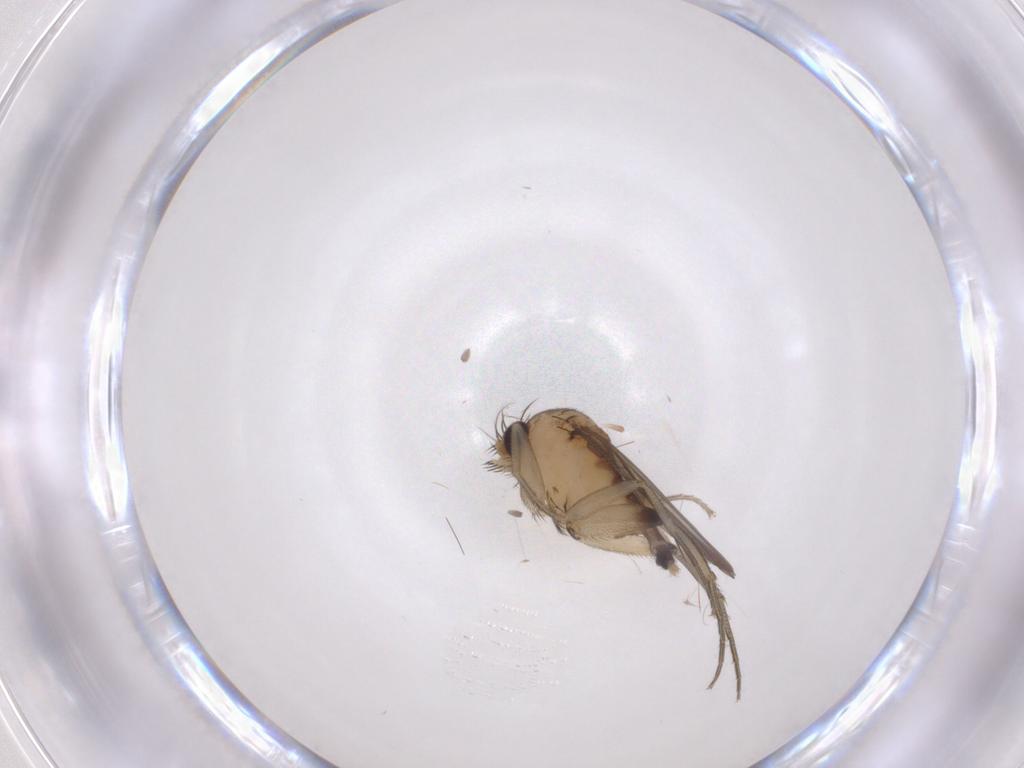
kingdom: Animalia
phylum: Arthropoda
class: Insecta
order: Diptera
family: Phoridae
